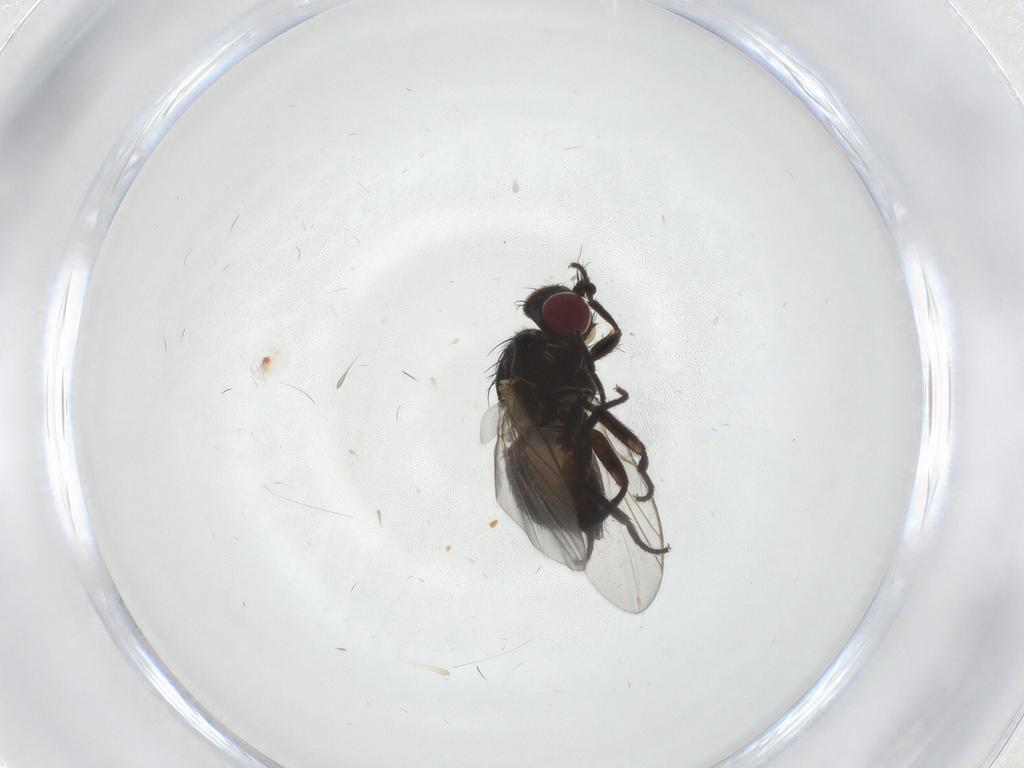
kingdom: Animalia
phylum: Arthropoda
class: Insecta
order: Diptera
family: Agromyzidae
